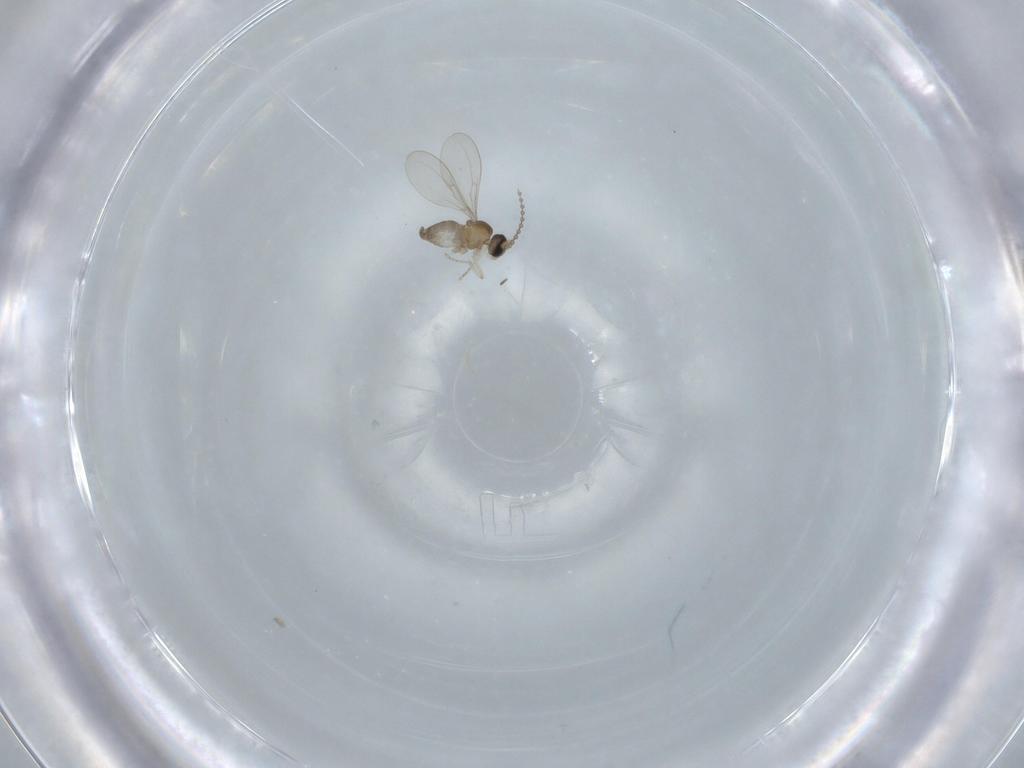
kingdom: Animalia
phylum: Arthropoda
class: Insecta
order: Diptera
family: Cecidomyiidae
